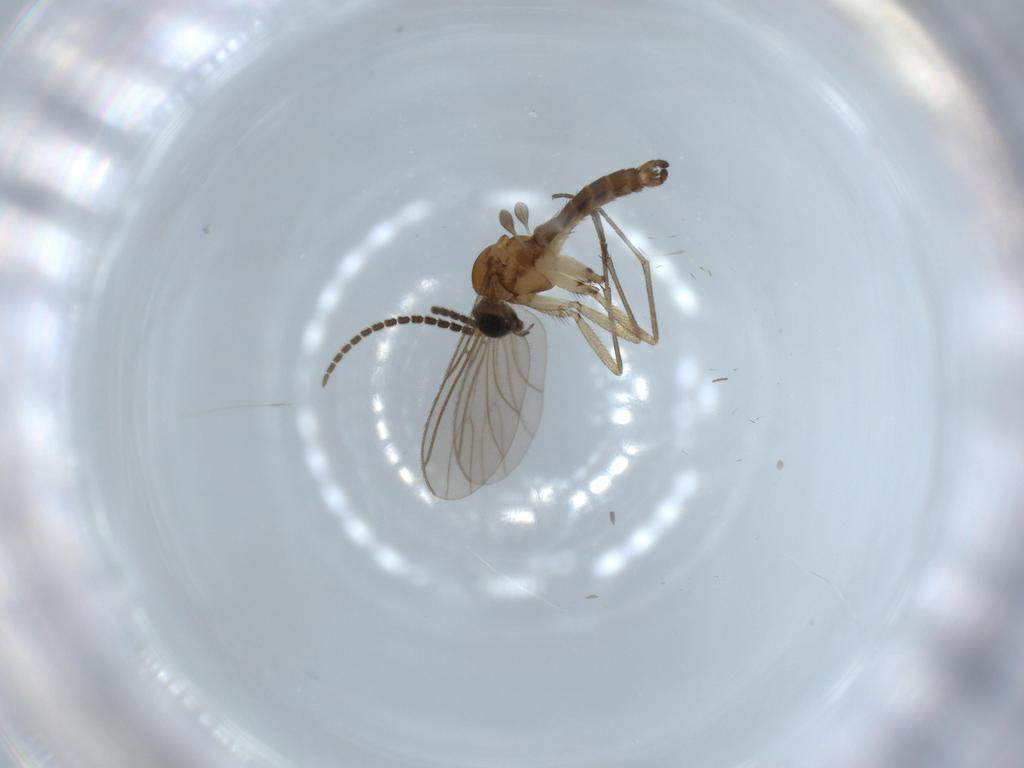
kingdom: Animalia
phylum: Arthropoda
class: Insecta
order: Diptera
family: Sciaridae
